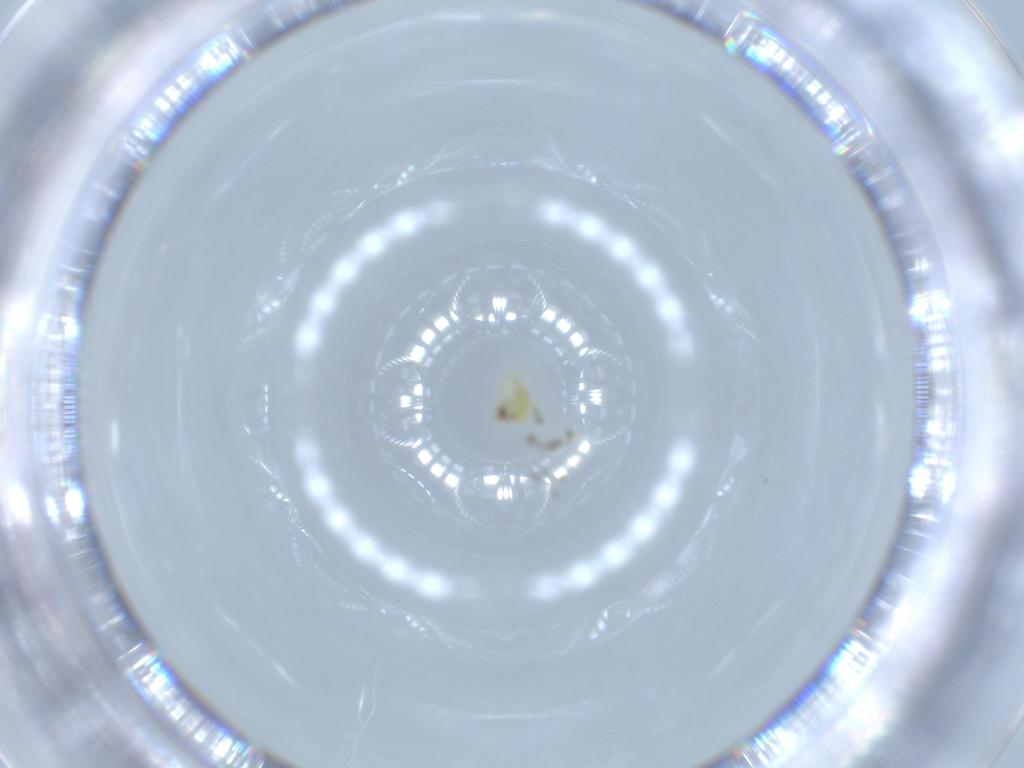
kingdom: Animalia
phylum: Arthropoda
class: Insecta
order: Hemiptera
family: Aleyrodidae
